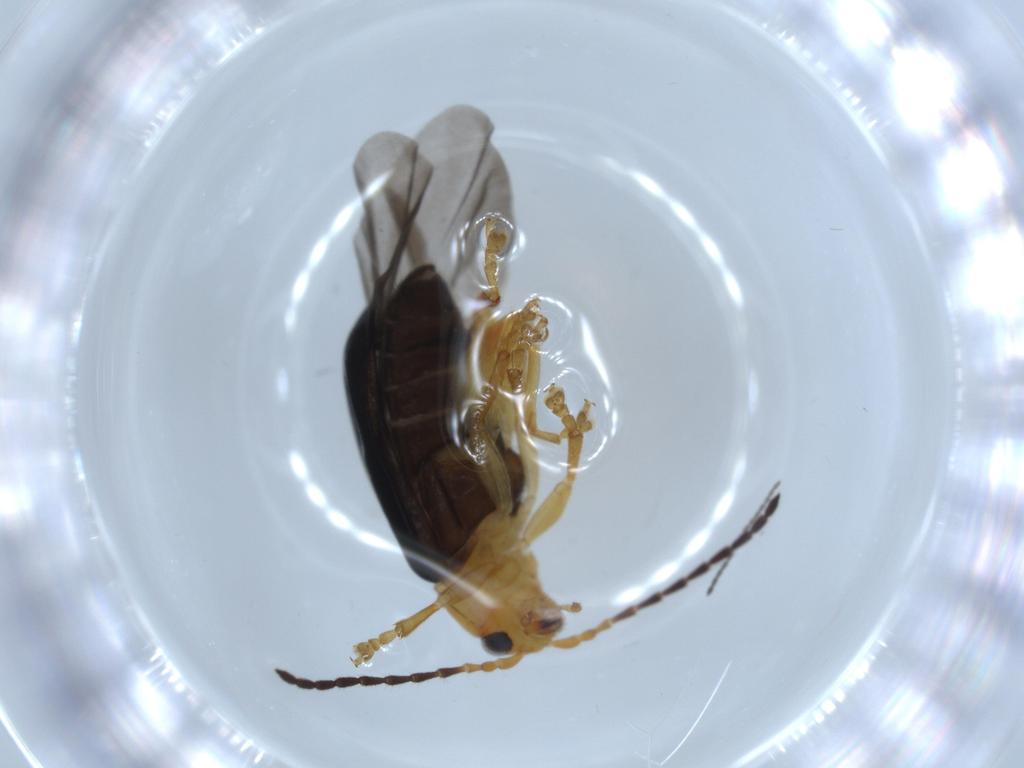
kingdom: Animalia
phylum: Arthropoda
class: Insecta
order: Coleoptera
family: Chrysomelidae
